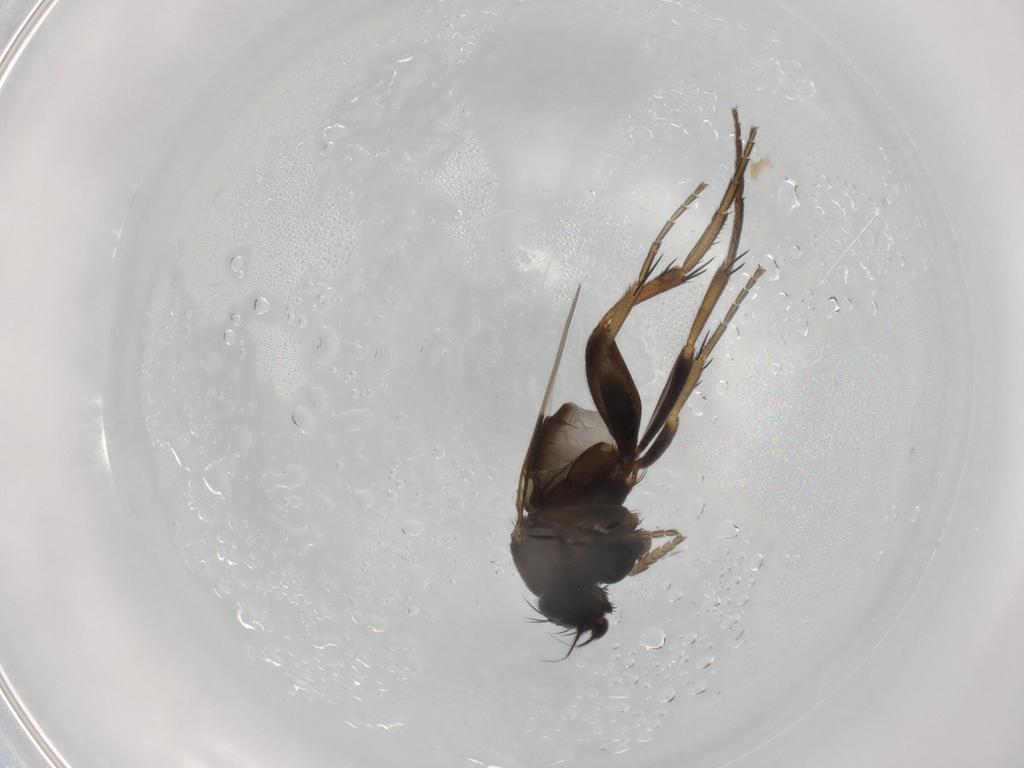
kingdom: Animalia
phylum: Arthropoda
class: Insecta
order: Diptera
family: Phoridae
